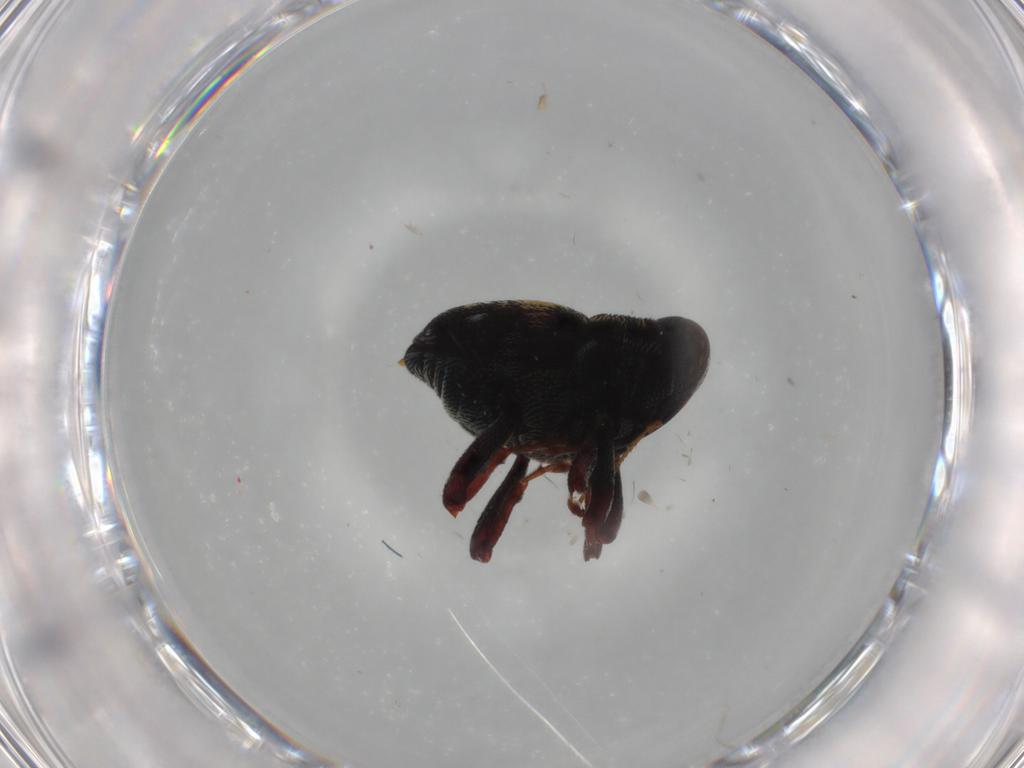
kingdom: Animalia
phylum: Arthropoda
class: Insecta
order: Coleoptera
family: Curculionidae
